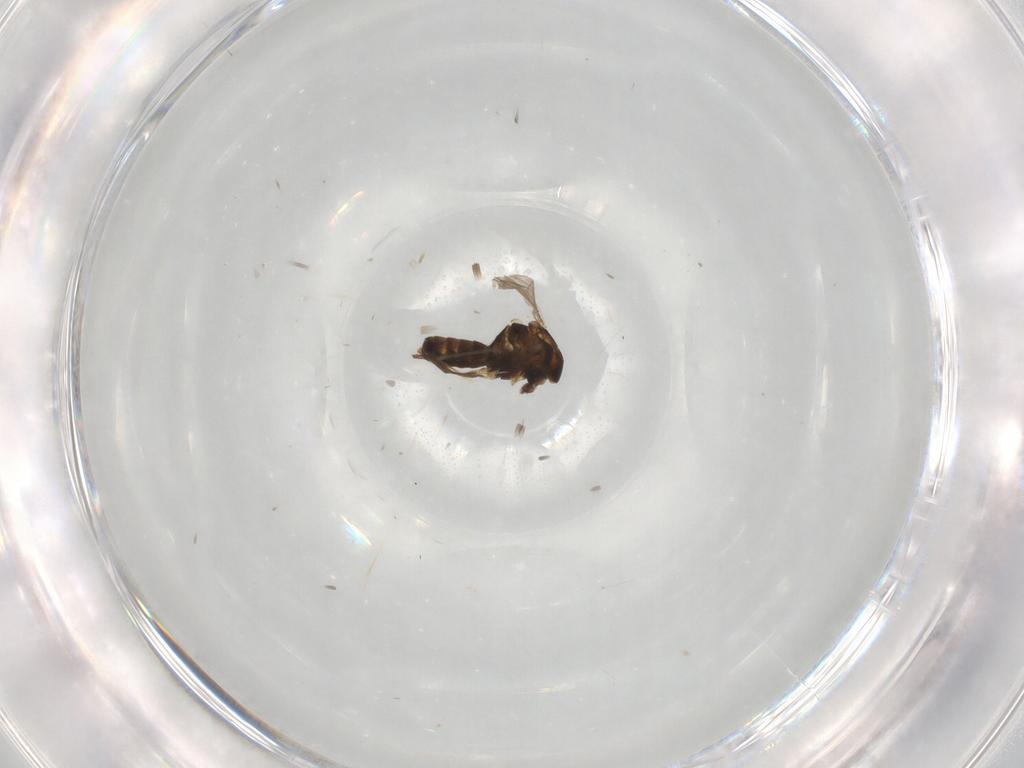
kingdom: Animalia
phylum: Arthropoda
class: Insecta
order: Diptera
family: Chironomidae
